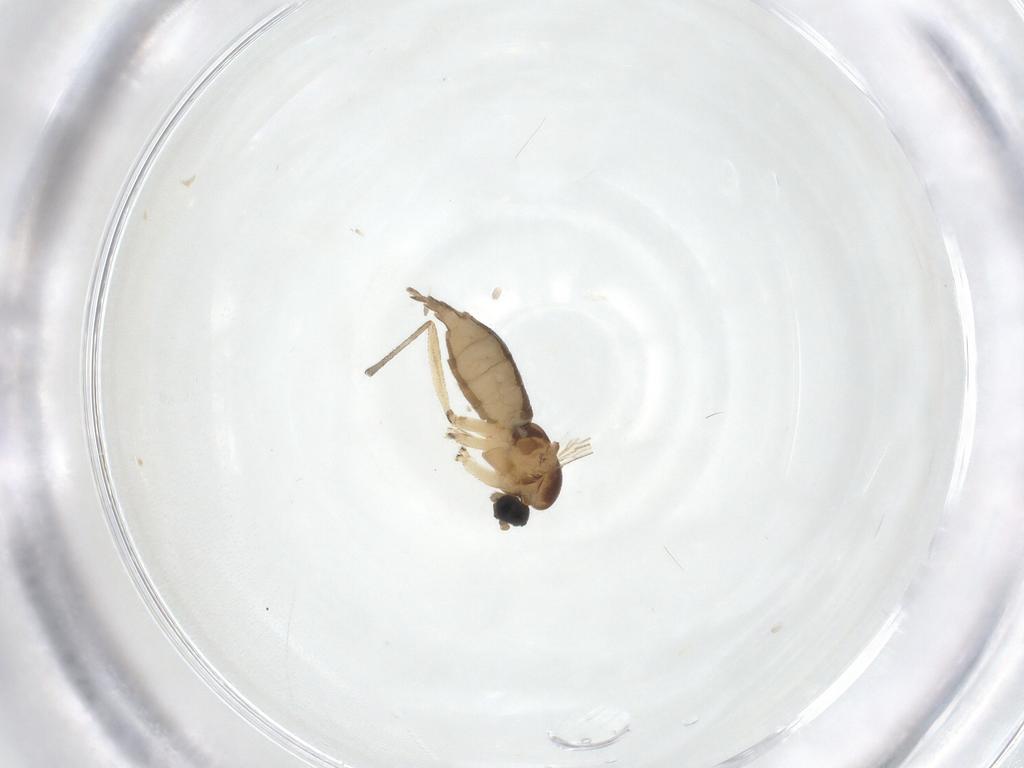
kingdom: Animalia
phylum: Arthropoda
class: Insecta
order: Diptera
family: Sciaridae
